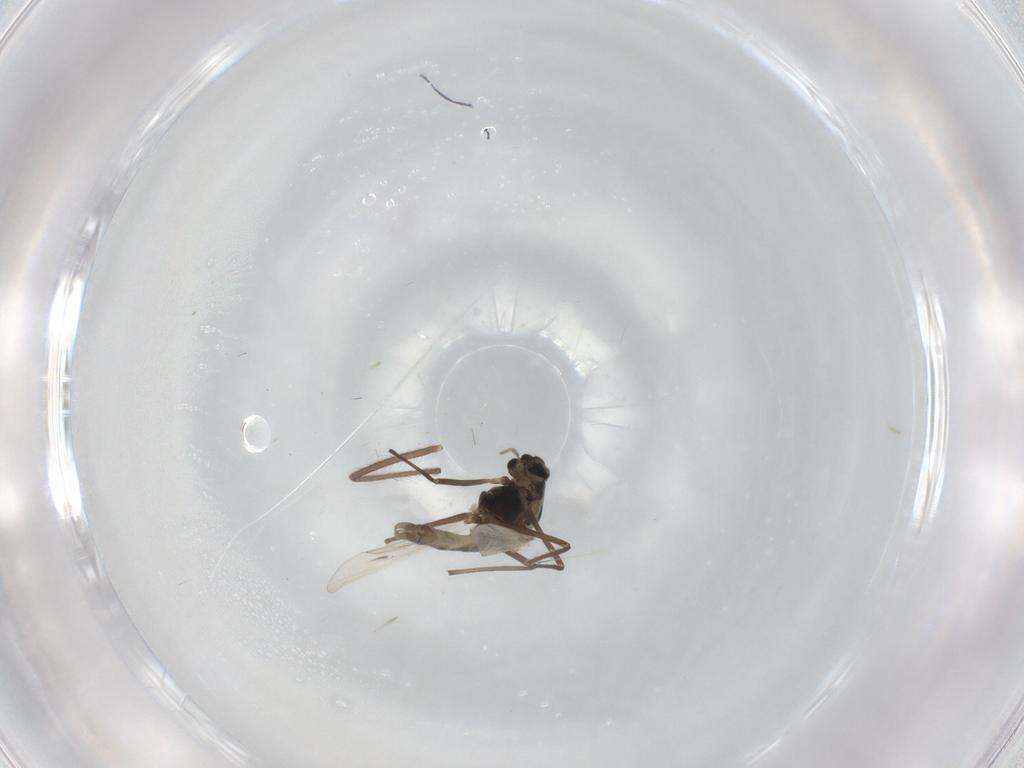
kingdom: Animalia
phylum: Arthropoda
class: Insecta
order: Diptera
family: Chironomidae
